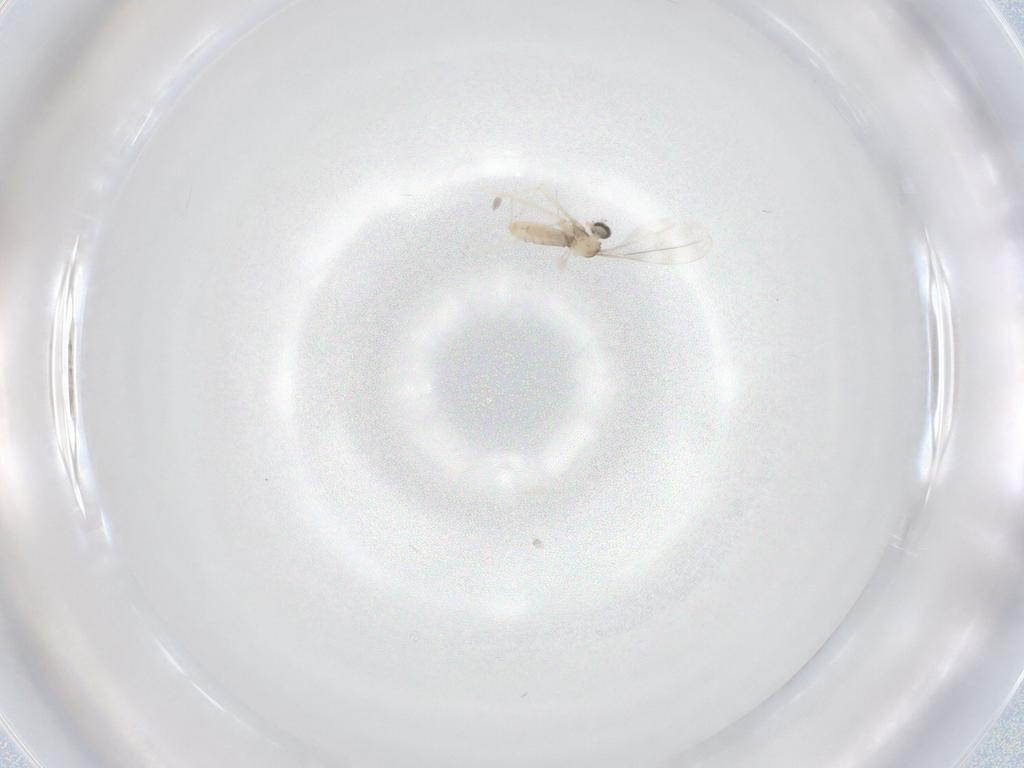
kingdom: Animalia
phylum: Arthropoda
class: Insecta
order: Diptera
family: Cecidomyiidae
